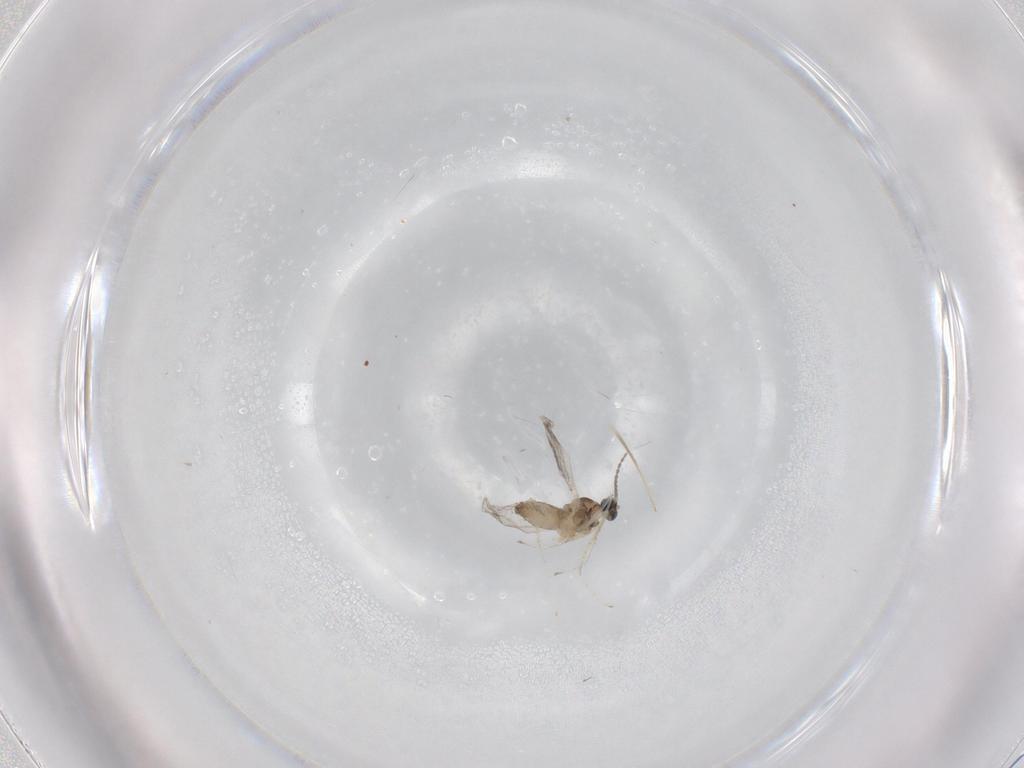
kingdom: Animalia
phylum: Arthropoda
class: Insecta
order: Diptera
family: Cecidomyiidae
